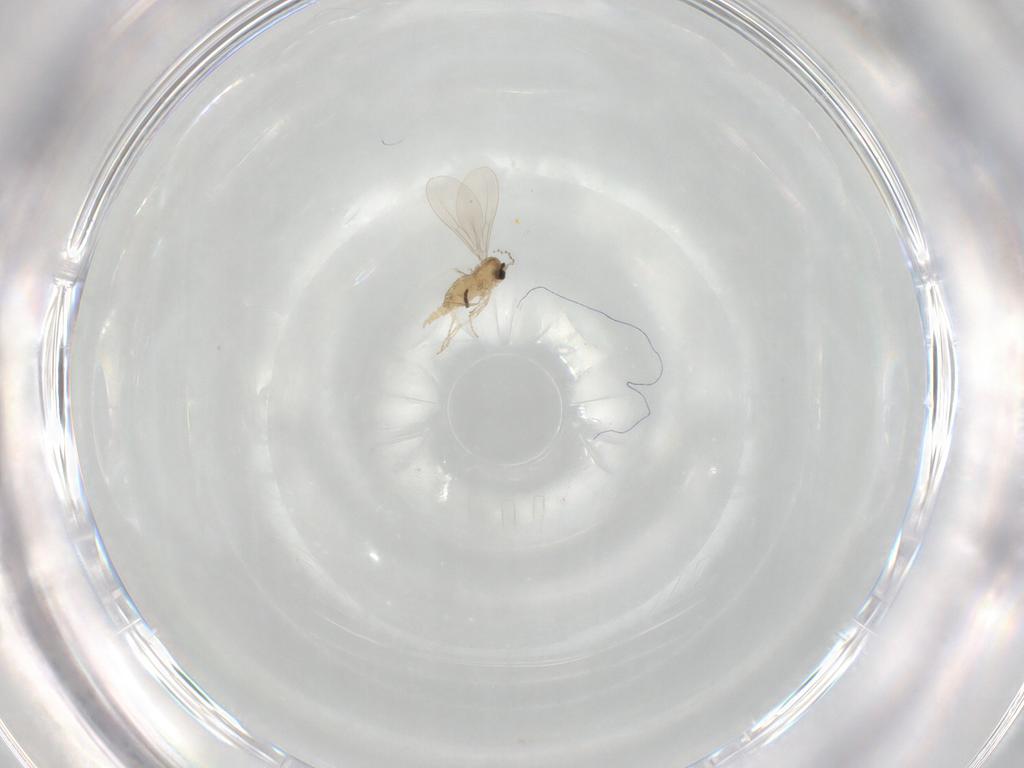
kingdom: Animalia
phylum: Arthropoda
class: Insecta
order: Diptera
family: Cecidomyiidae
